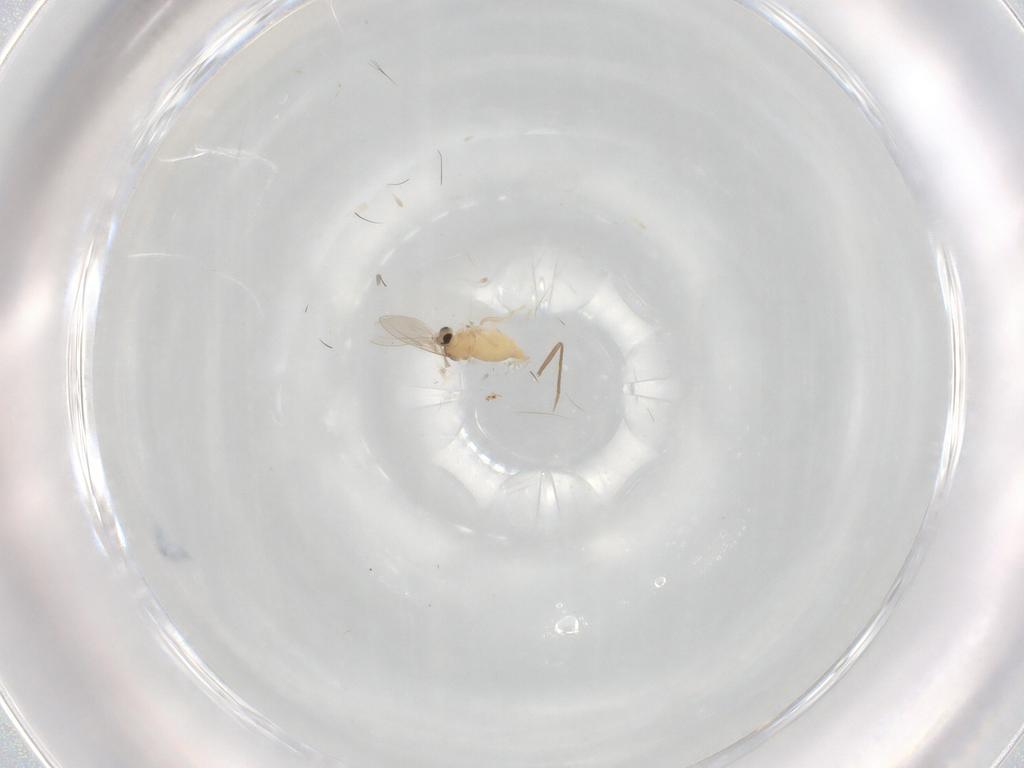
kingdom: Animalia
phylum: Arthropoda
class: Insecta
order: Diptera
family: Cecidomyiidae
